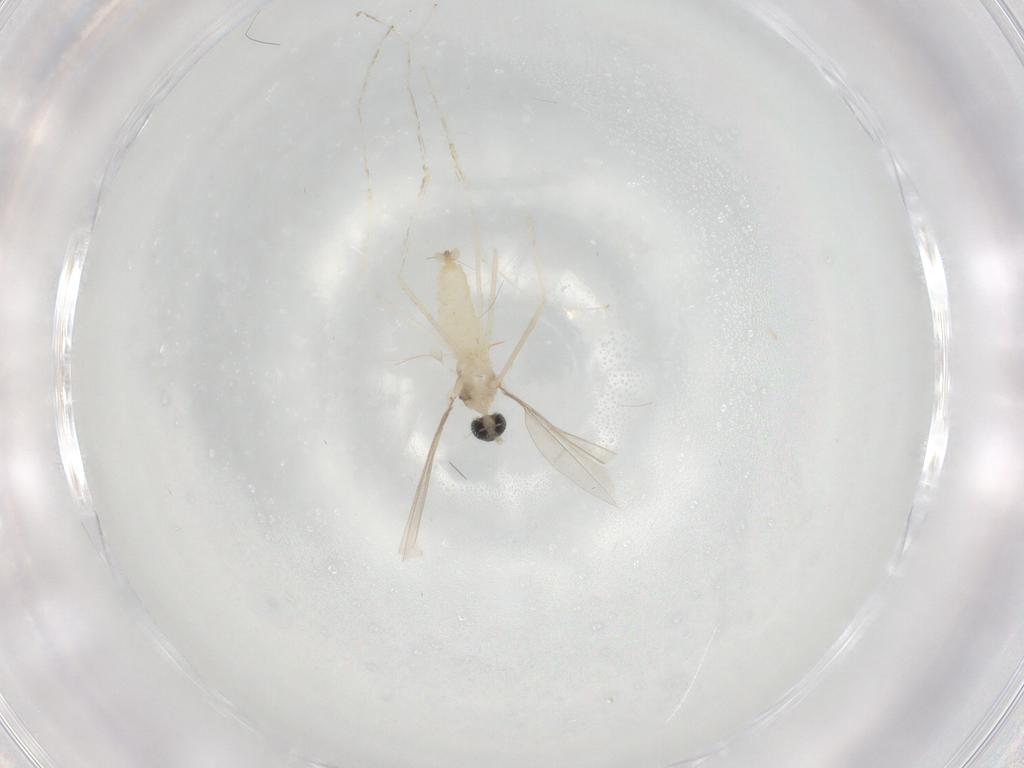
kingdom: Animalia
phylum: Arthropoda
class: Insecta
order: Diptera
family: Cecidomyiidae
